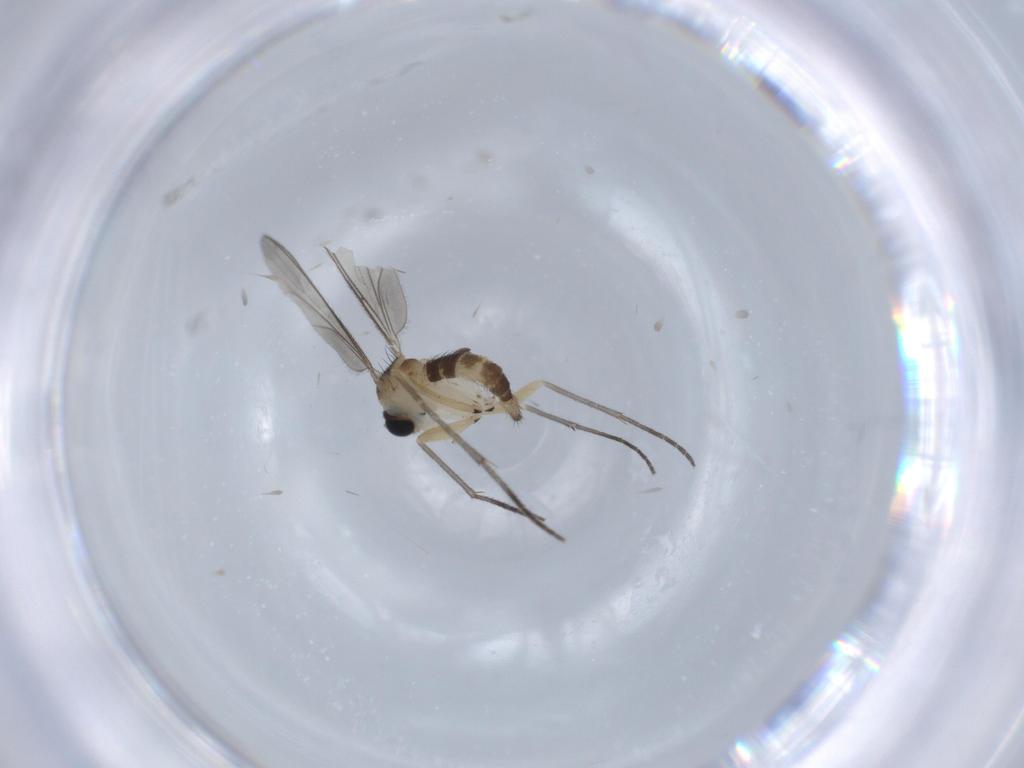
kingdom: Animalia
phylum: Arthropoda
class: Insecta
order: Diptera
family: Sciaridae
